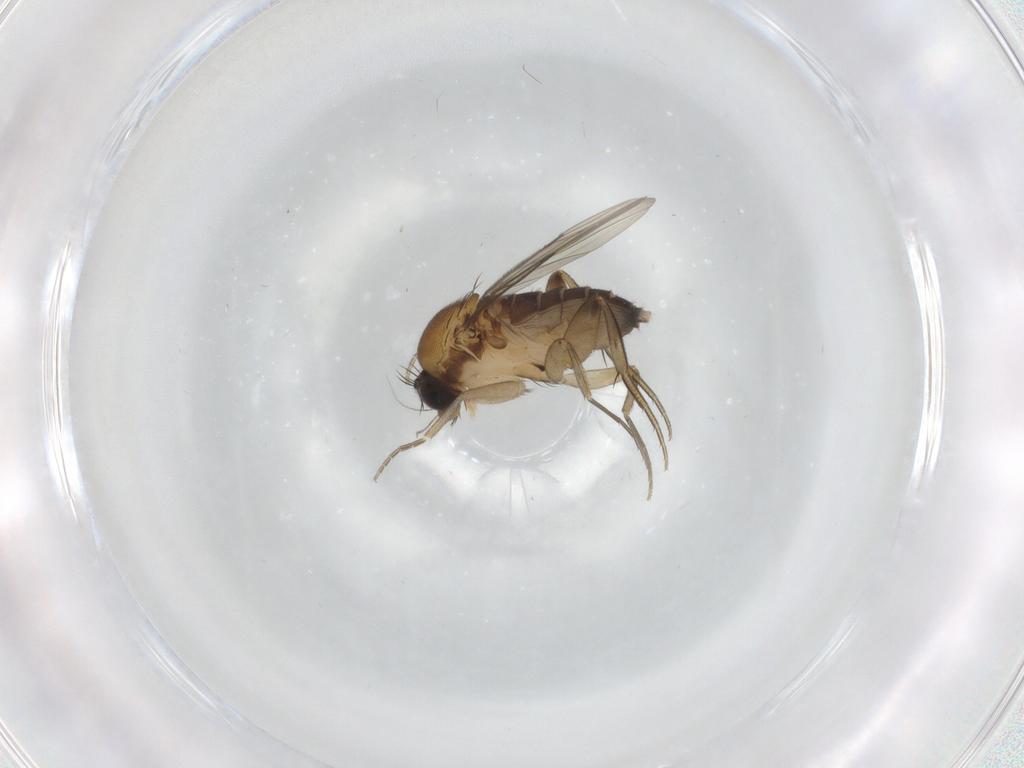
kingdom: Animalia
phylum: Arthropoda
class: Insecta
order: Diptera
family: Phoridae
